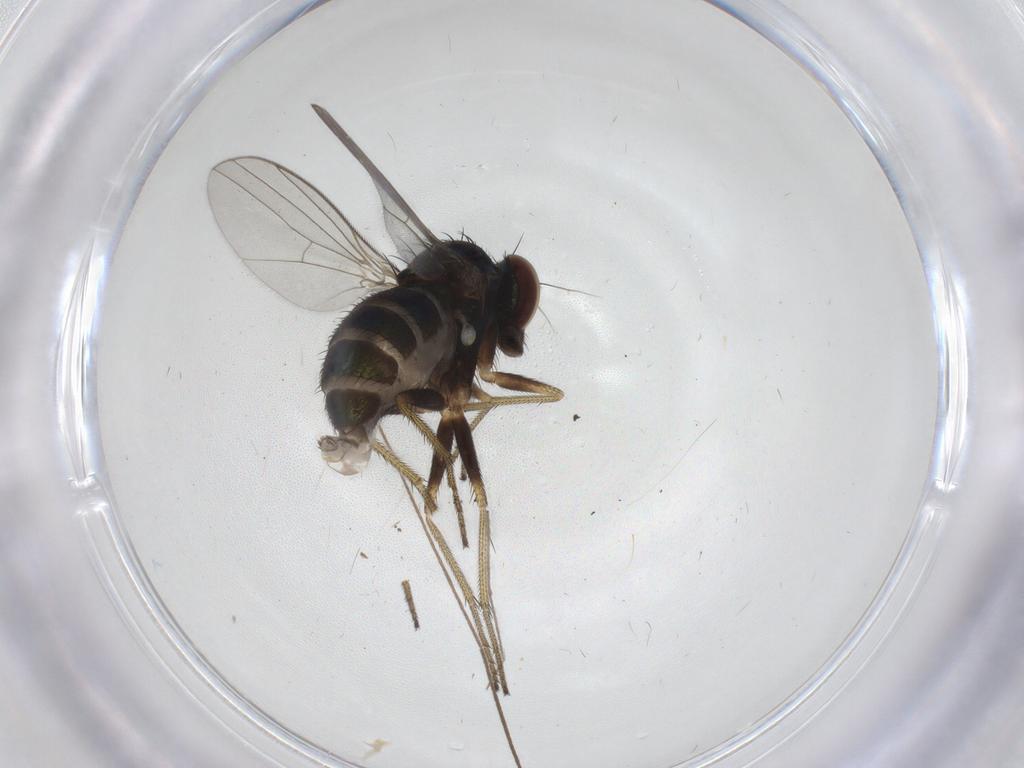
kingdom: Animalia
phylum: Arthropoda
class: Insecta
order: Diptera
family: Limoniidae
